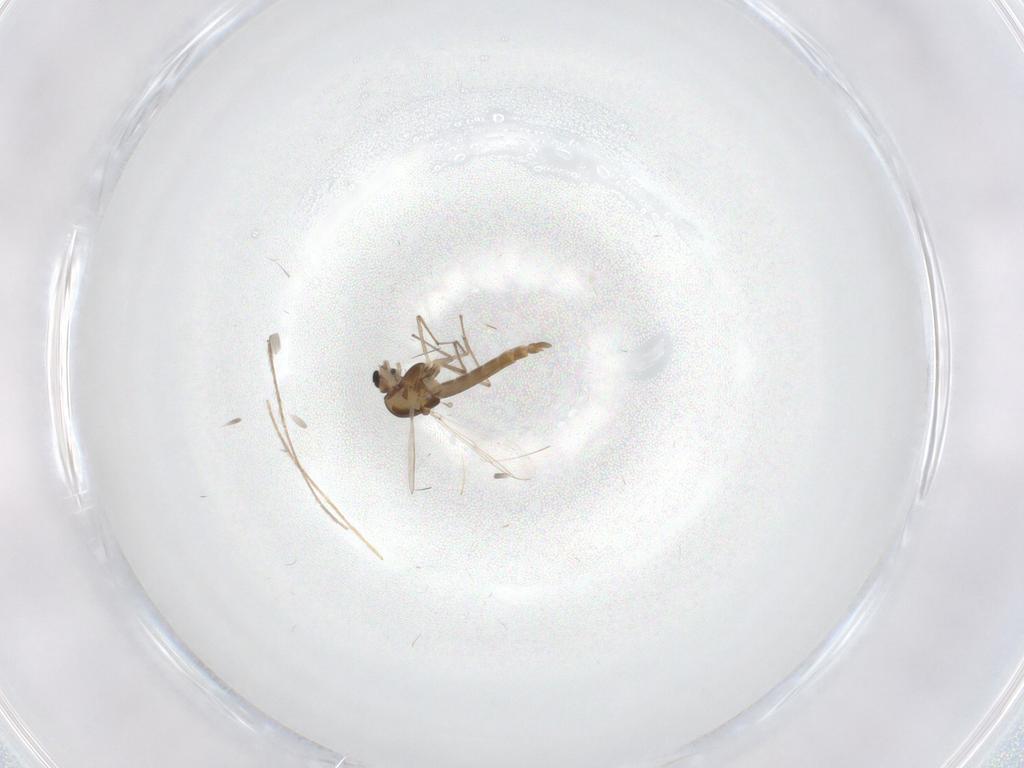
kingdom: Animalia
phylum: Arthropoda
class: Insecta
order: Diptera
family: Chironomidae
